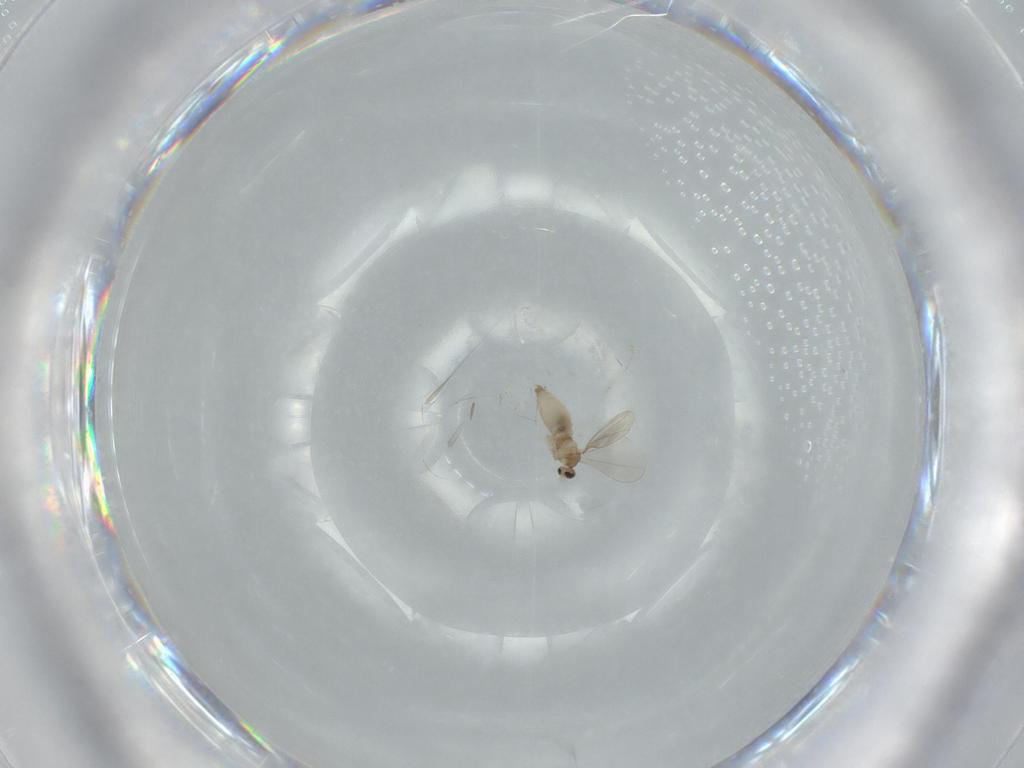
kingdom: Animalia
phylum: Arthropoda
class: Insecta
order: Diptera
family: Cecidomyiidae
